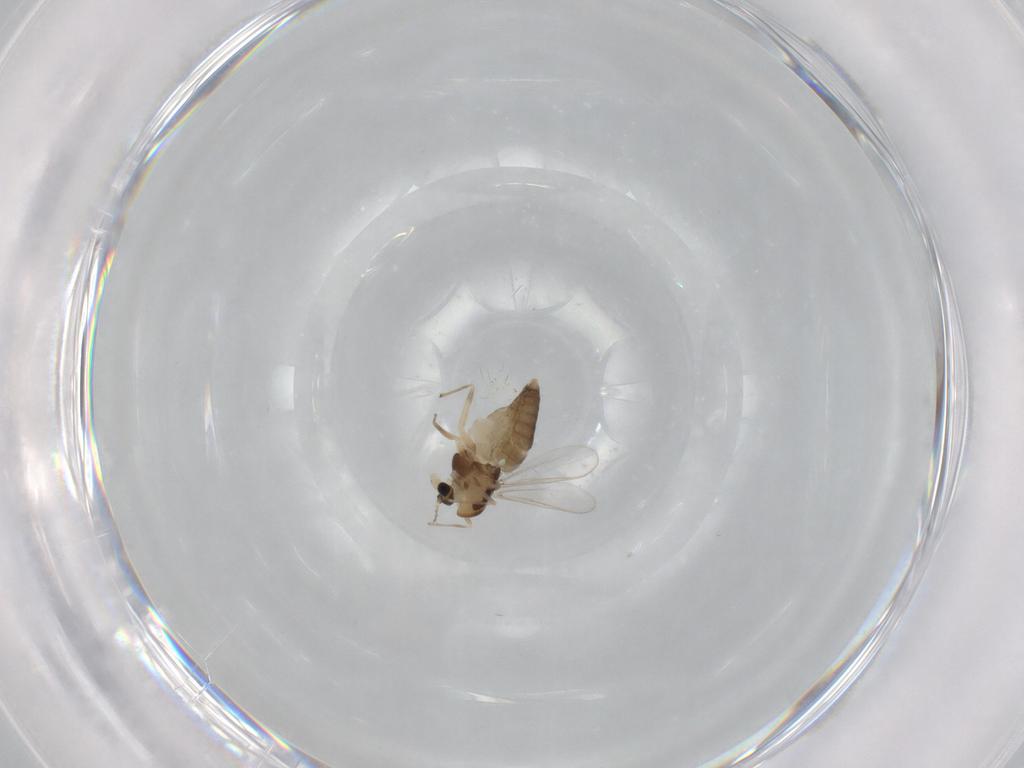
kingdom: Animalia
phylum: Arthropoda
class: Insecta
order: Diptera
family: Chironomidae
